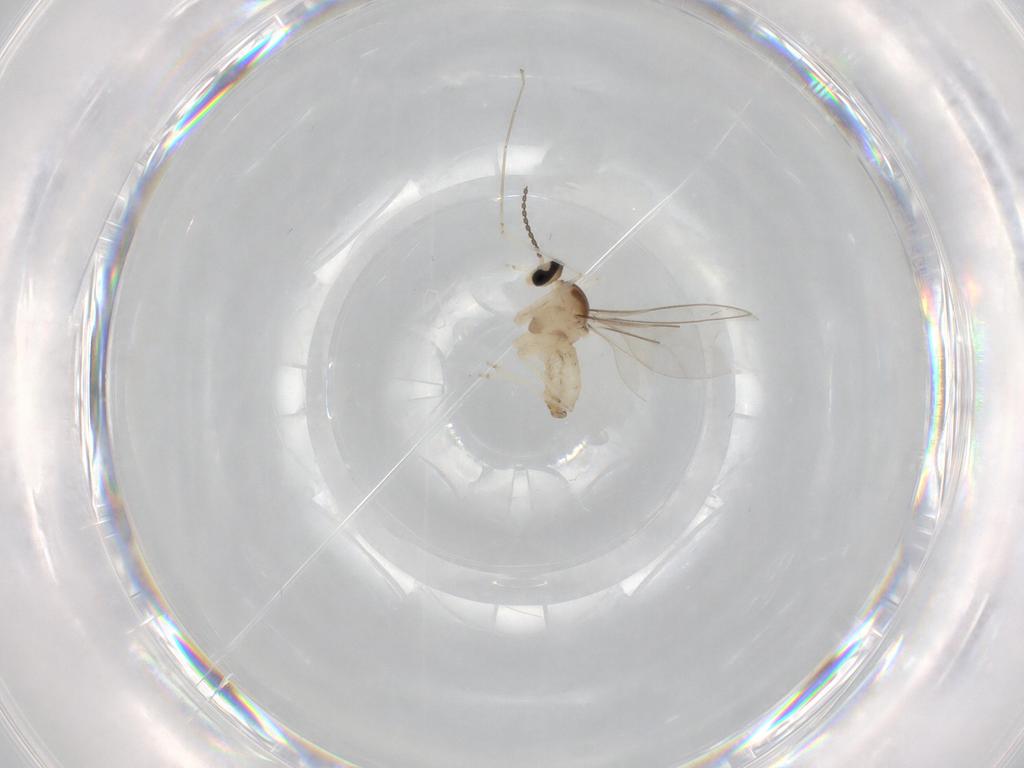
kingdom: Animalia
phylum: Arthropoda
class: Insecta
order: Diptera
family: Cecidomyiidae
